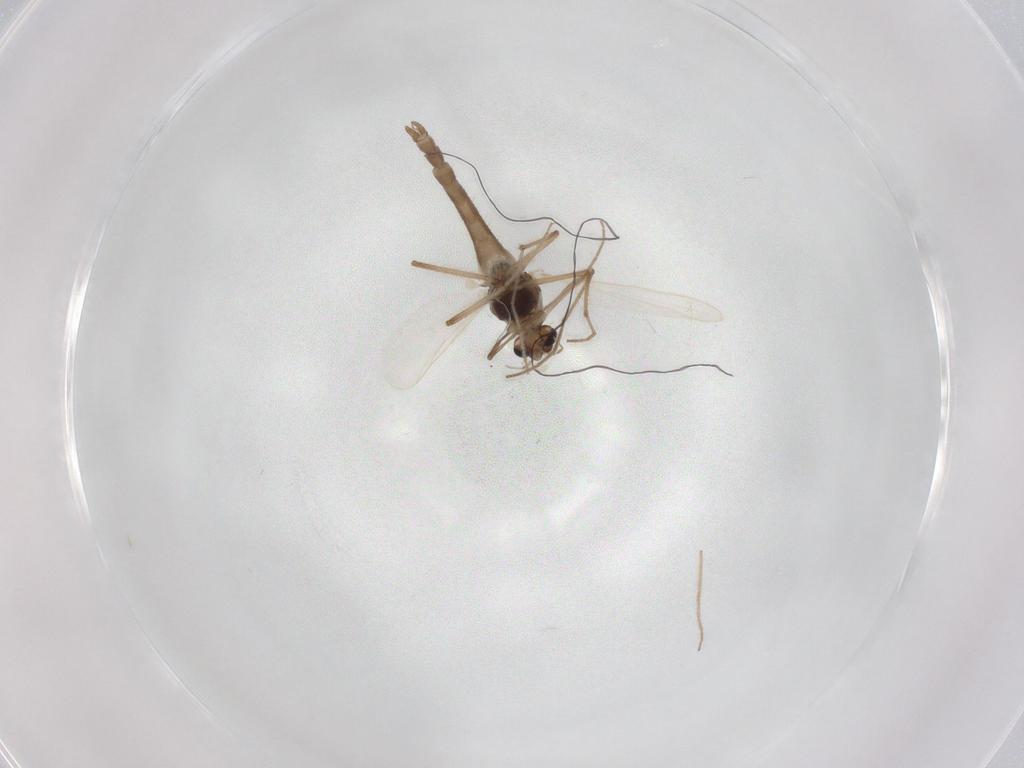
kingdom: Animalia
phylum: Arthropoda
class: Insecta
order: Diptera
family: Chironomidae
